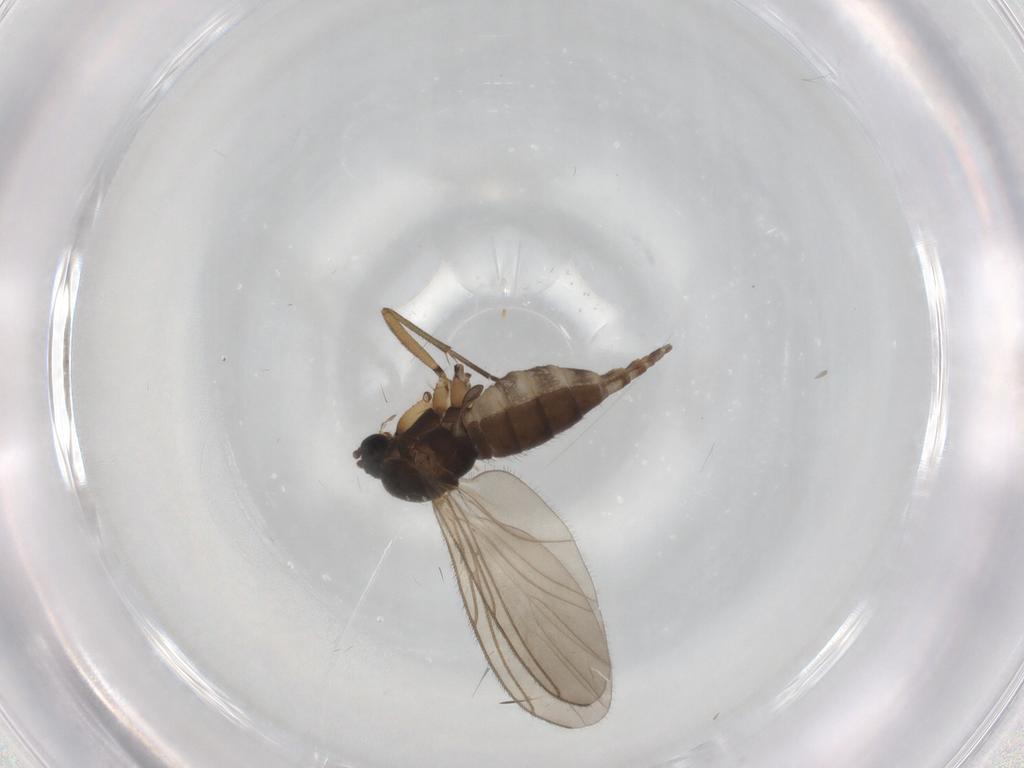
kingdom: Animalia
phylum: Arthropoda
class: Insecta
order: Diptera
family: Sciaridae
